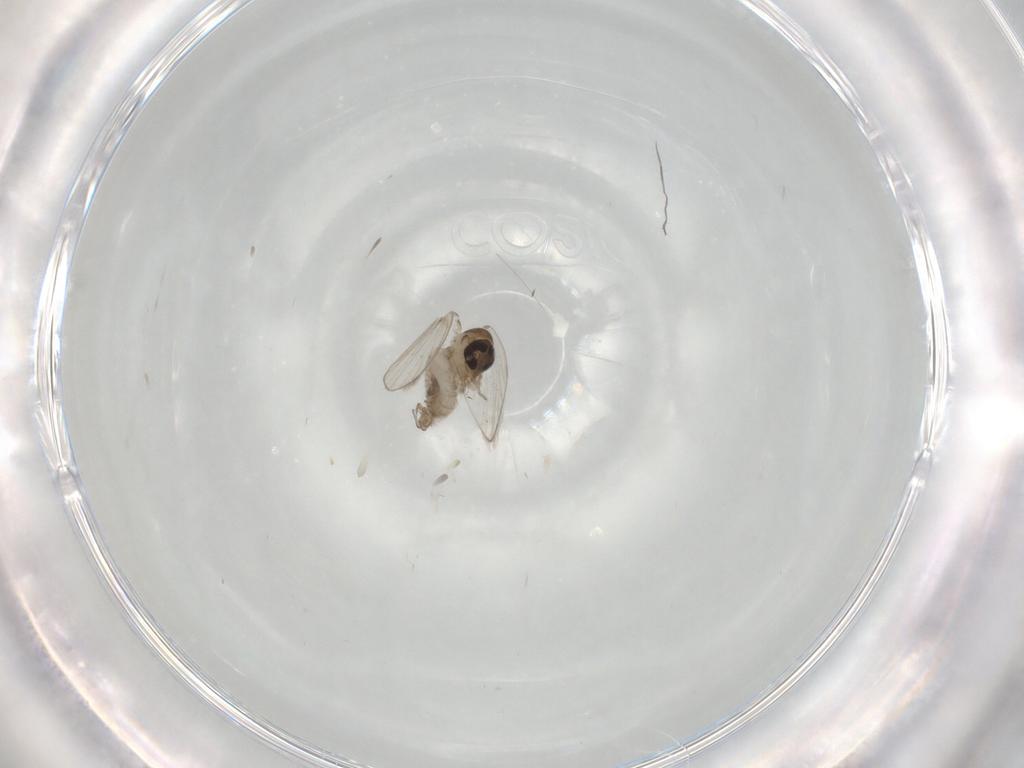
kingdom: Animalia
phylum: Arthropoda
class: Insecta
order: Diptera
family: Psychodidae
